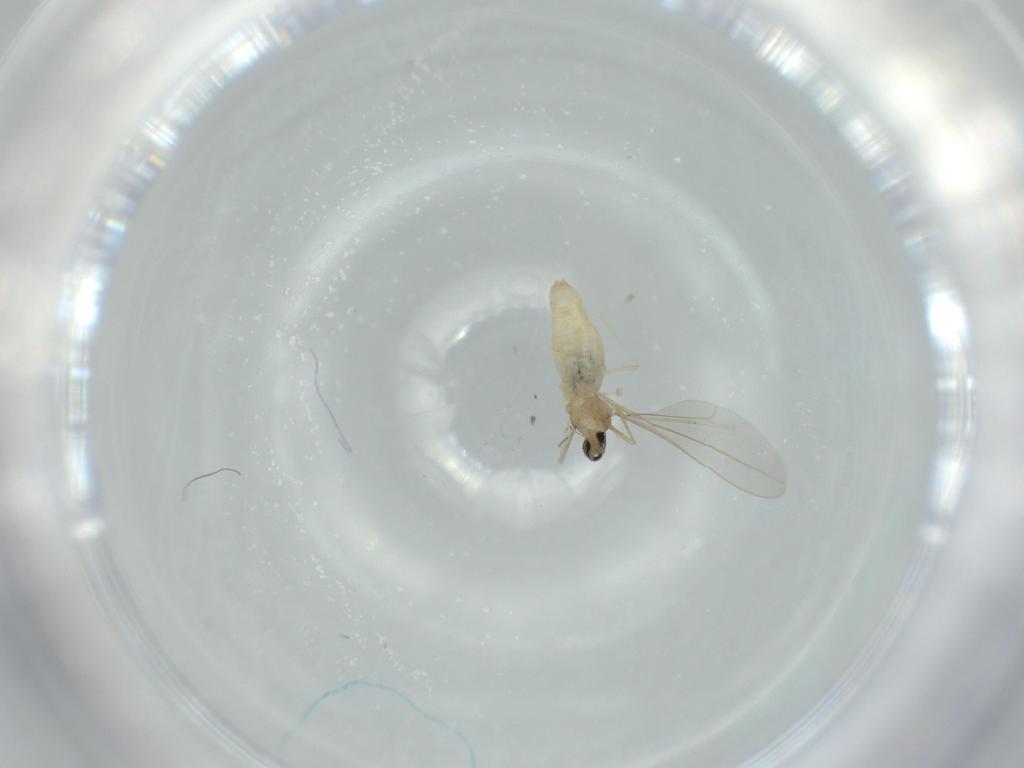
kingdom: Animalia
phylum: Arthropoda
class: Insecta
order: Diptera
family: Cecidomyiidae
